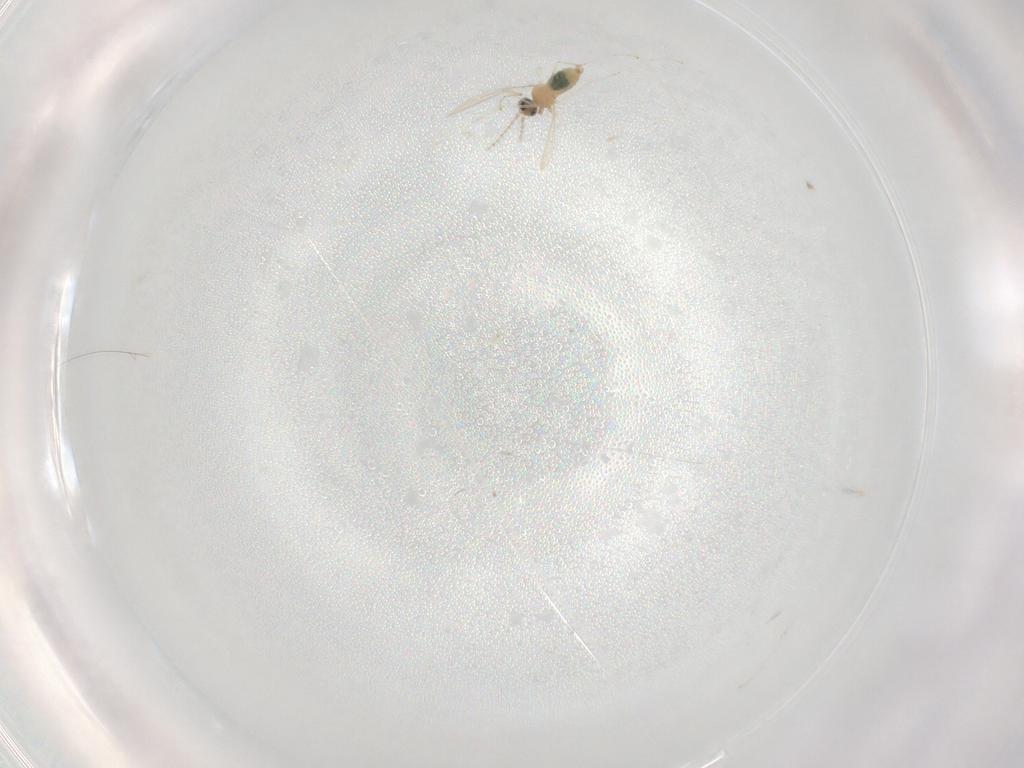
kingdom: Animalia
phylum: Arthropoda
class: Insecta
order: Diptera
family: Cecidomyiidae
